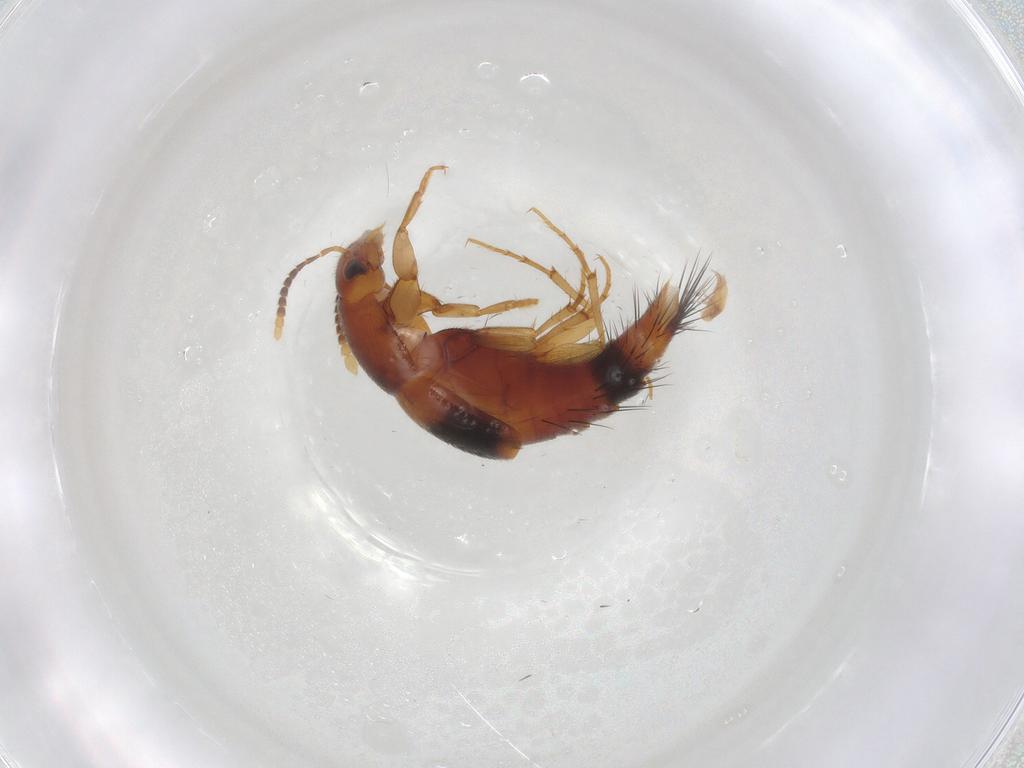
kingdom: Animalia
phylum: Arthropoda
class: Insecta
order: Coleoptera
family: Staphylinidae
